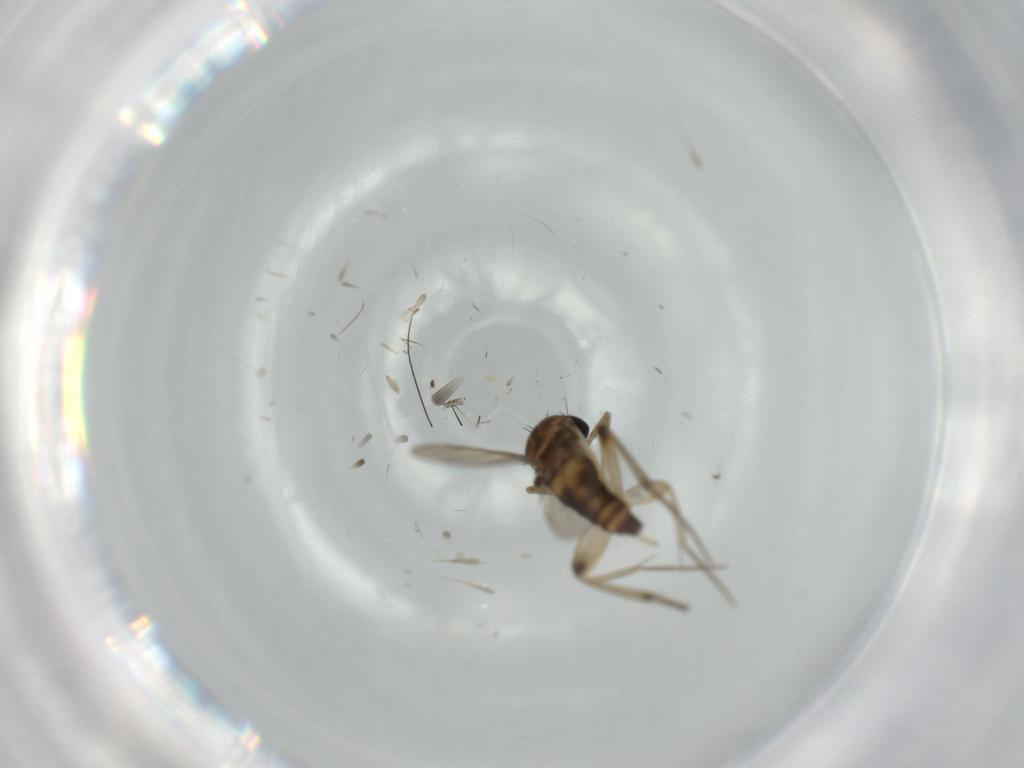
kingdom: Animalia
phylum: Arthropoda
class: Insecta
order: Diptera
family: Phoridae
